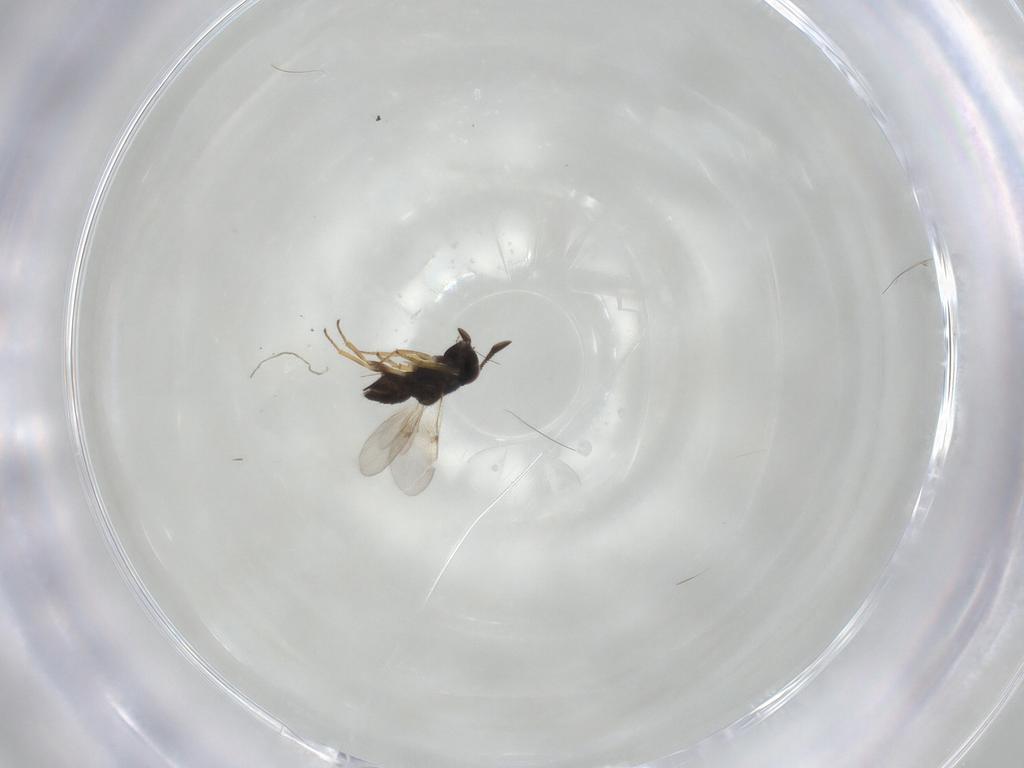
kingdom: Animalia
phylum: Arthropoda
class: Insecta
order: Hymenoptera
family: Encyrtidae
